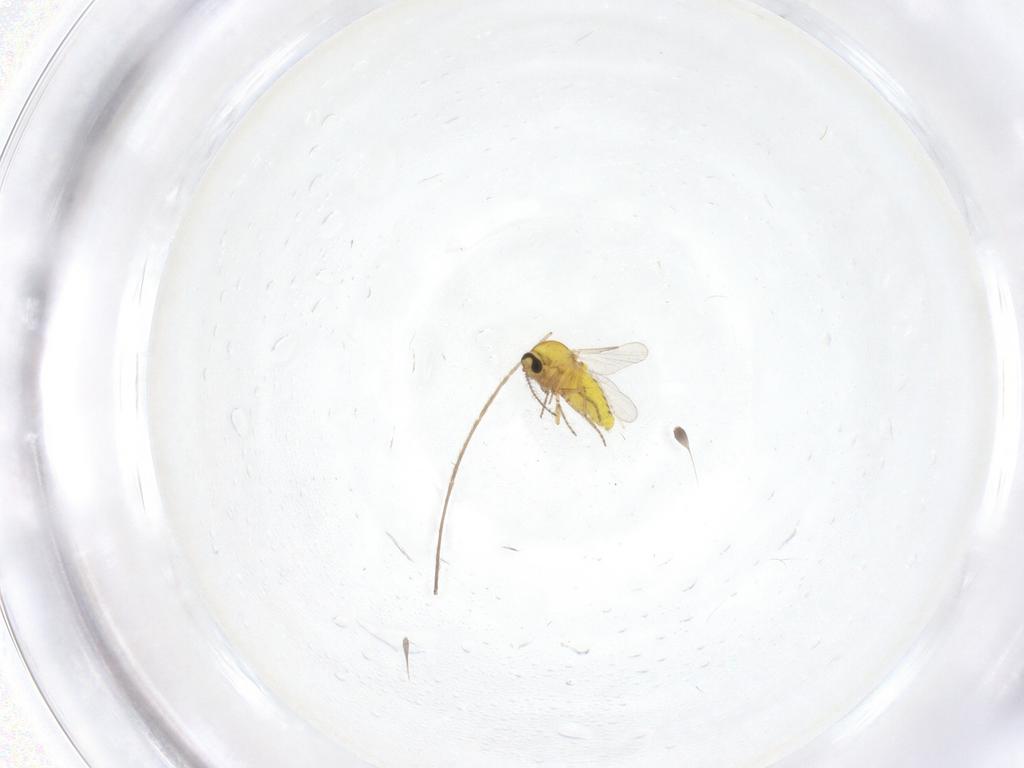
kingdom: Animalia
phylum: Arthropoda
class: Insecta
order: Diptera
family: Ceratopogonidae
